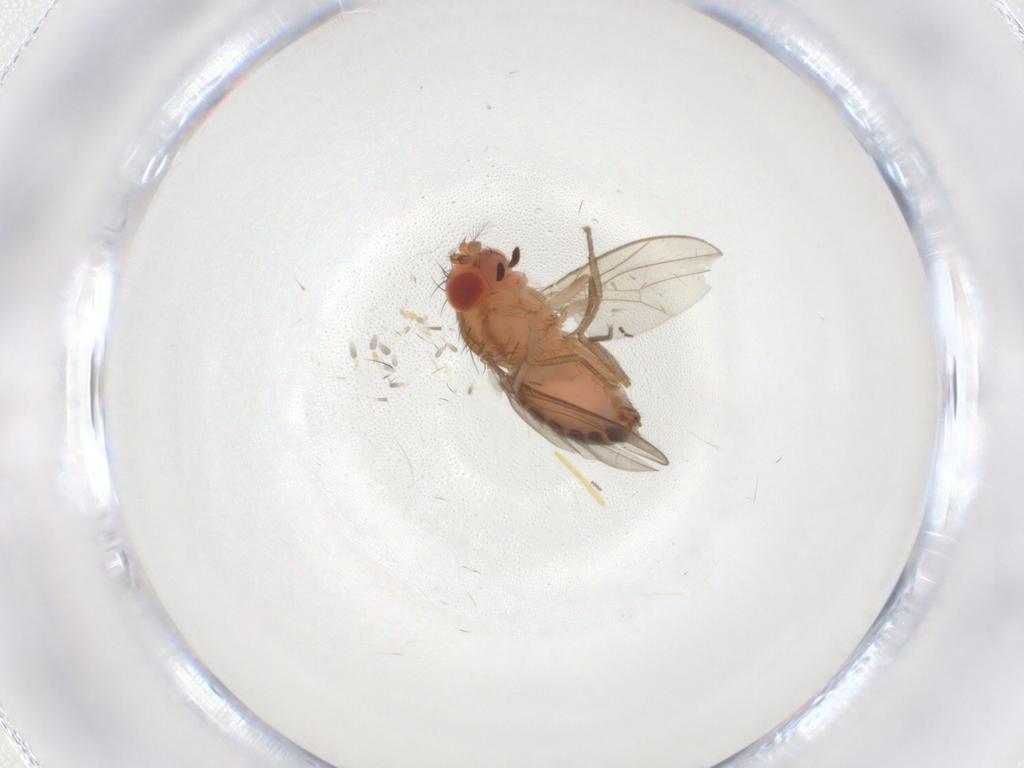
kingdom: Animalia
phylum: Arthropoda
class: Insecta
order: Diptera
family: Drosophilidae
